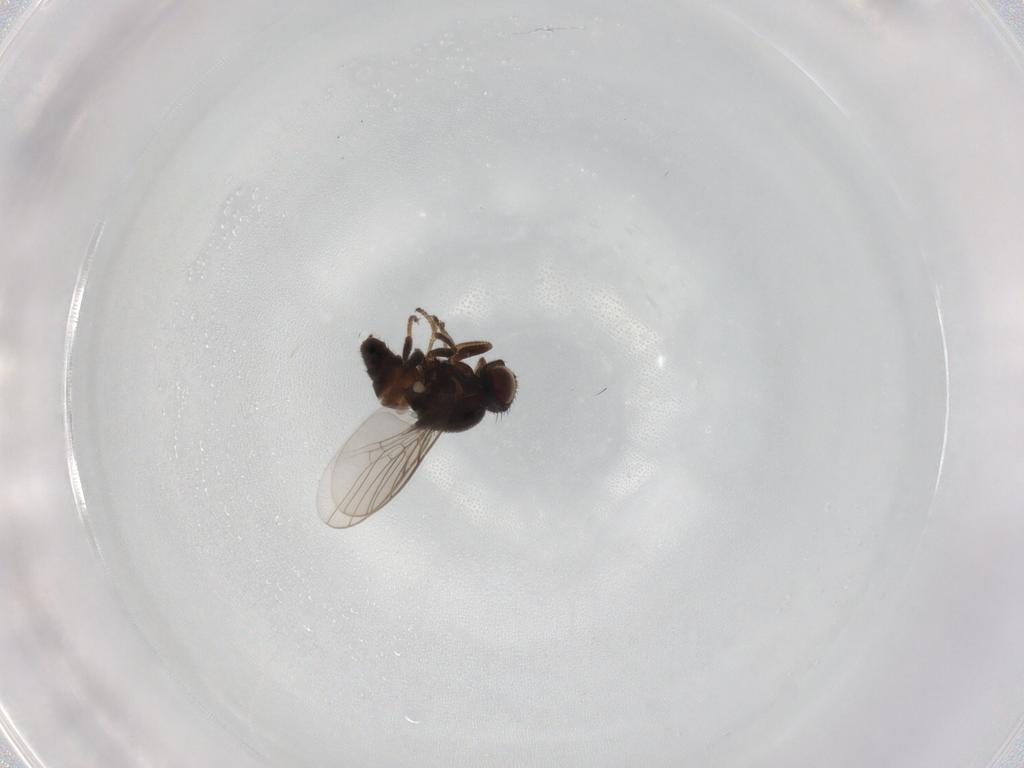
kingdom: Animalia
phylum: Arthropoda
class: Insecta
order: Diptera
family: Chloropidae
